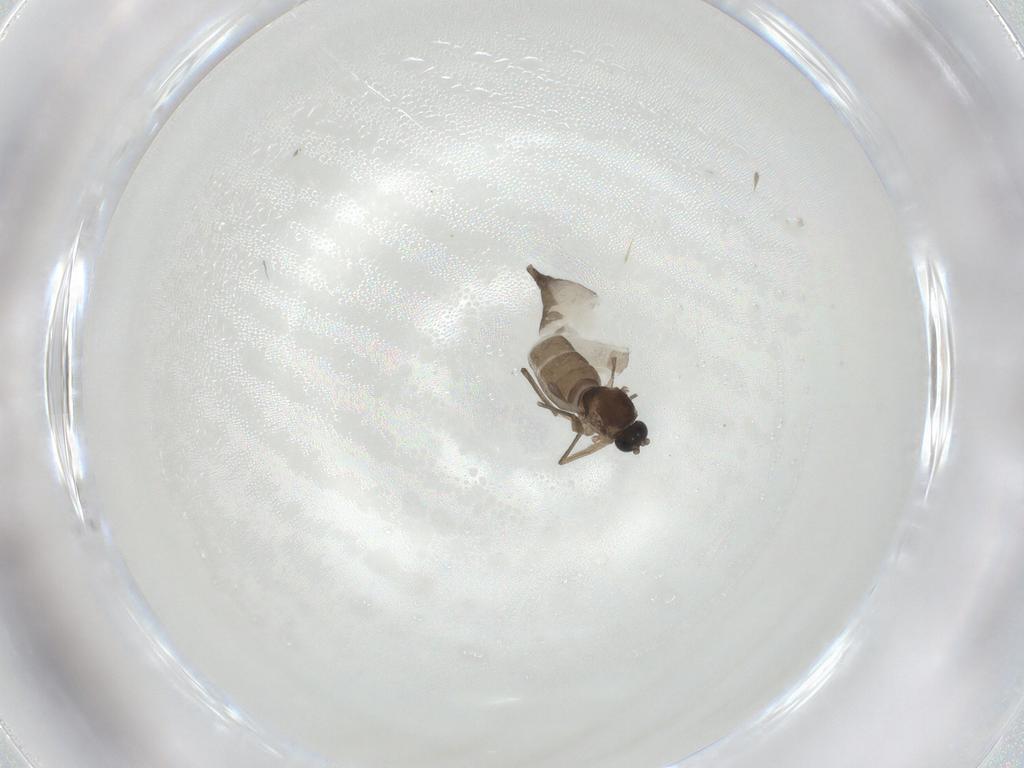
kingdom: Animalia
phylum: Arthropoda
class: Insecta
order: Diptera
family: Sciaridae
